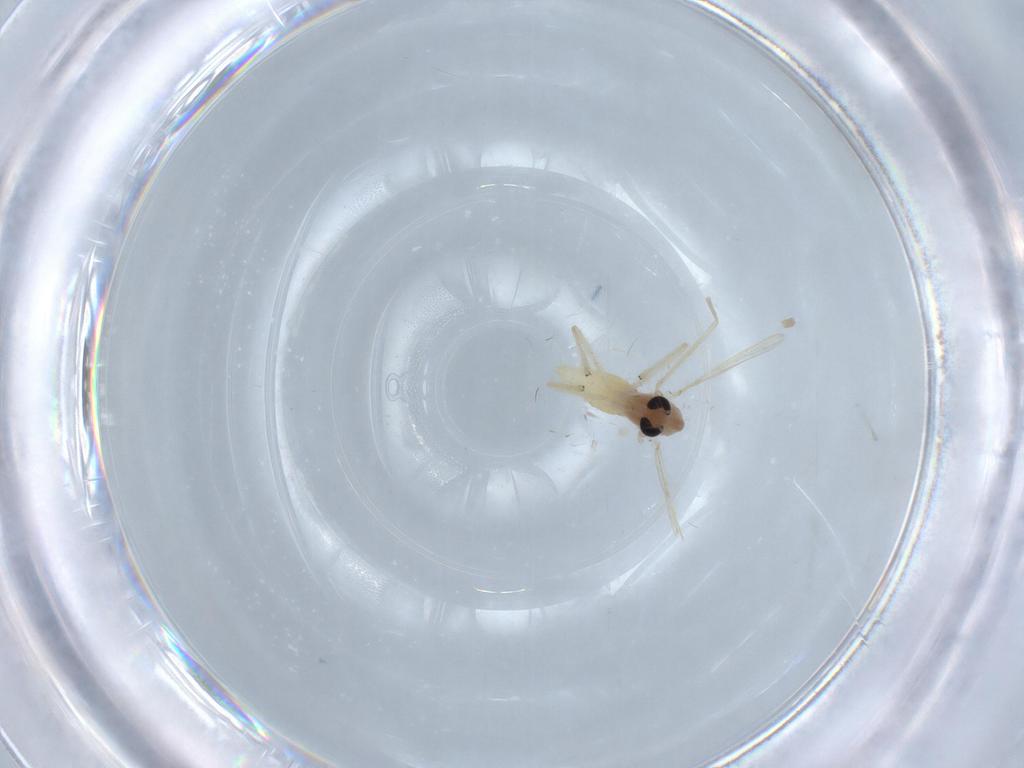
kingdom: Animalia
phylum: Arthropoda
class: Insecta
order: Diptera
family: Chironomidae
